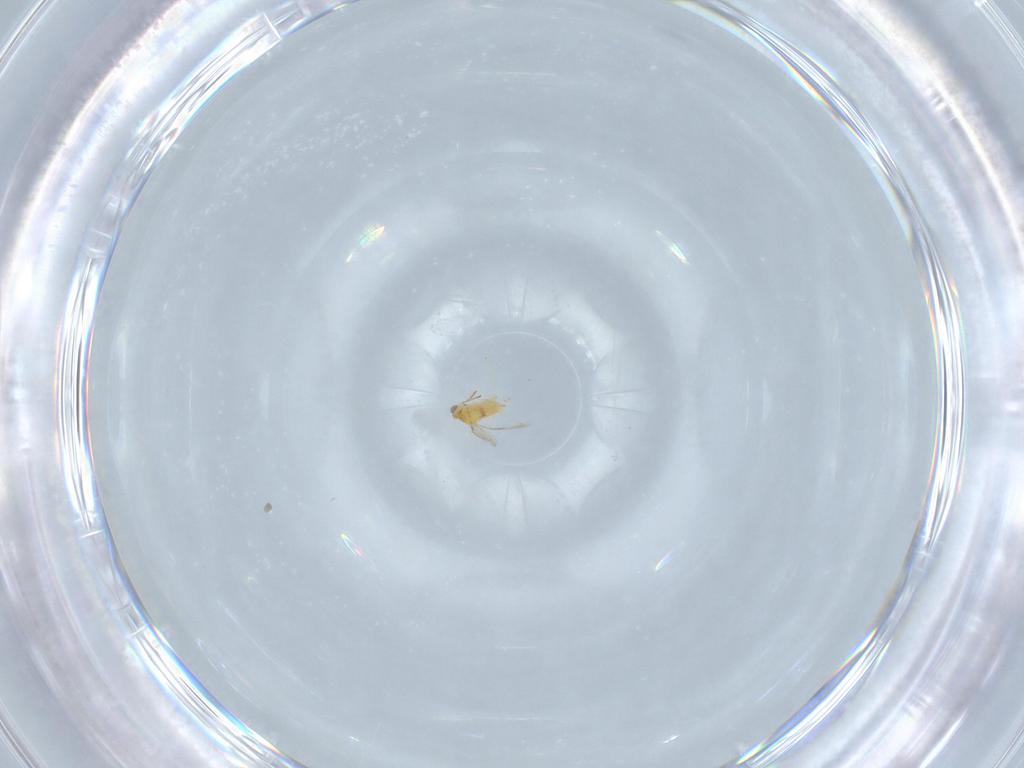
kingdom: Animalia
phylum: Arthropoda
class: Insecta
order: Hymenoptera
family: Aphelinidae
